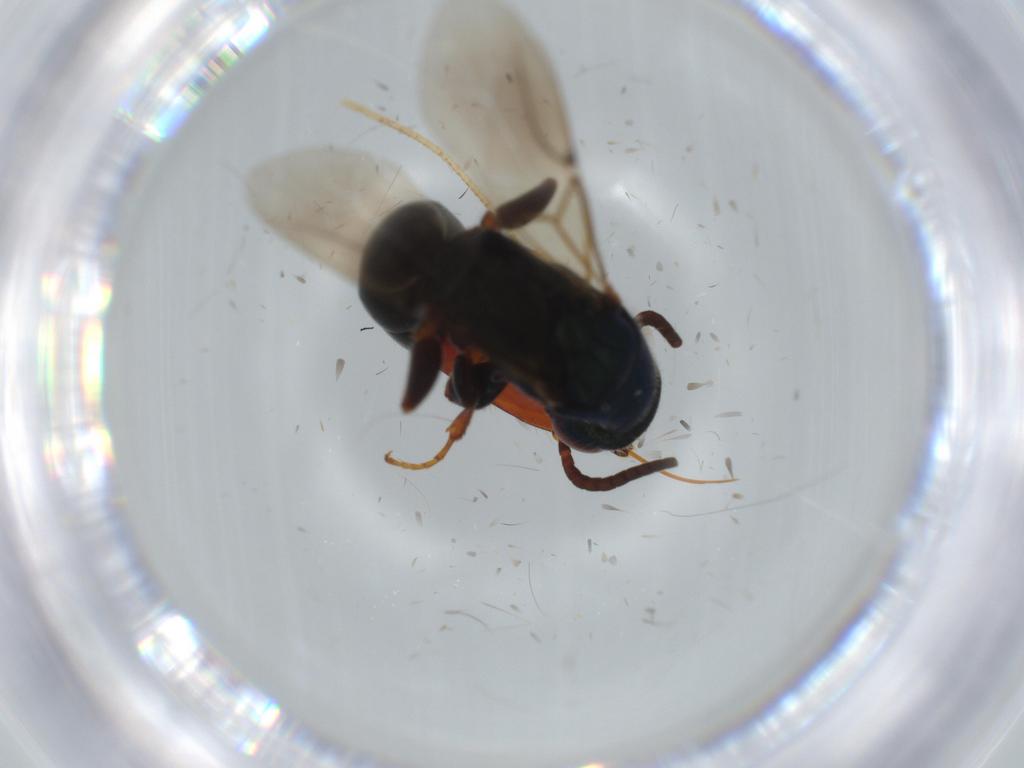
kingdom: Animalia
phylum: Arthropoda
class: Insecta
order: Hymenoptera
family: Bethylidae
